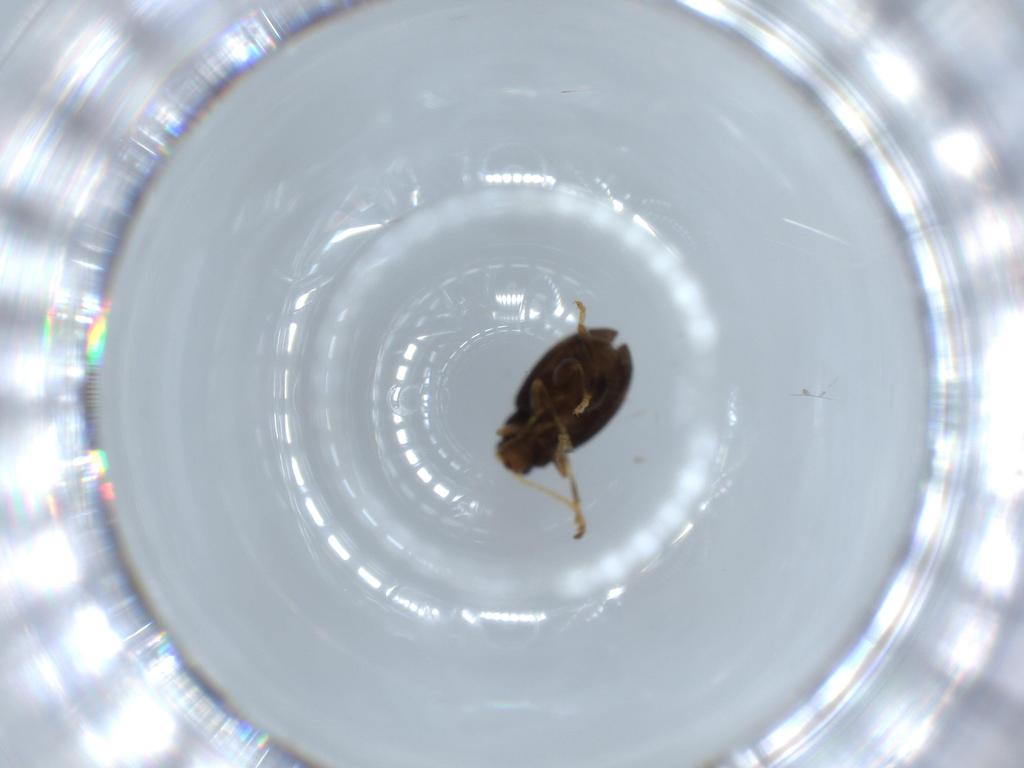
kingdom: Animalia
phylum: Arthropoda
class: Insecta
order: Coleoptera
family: Chrysomelidae
